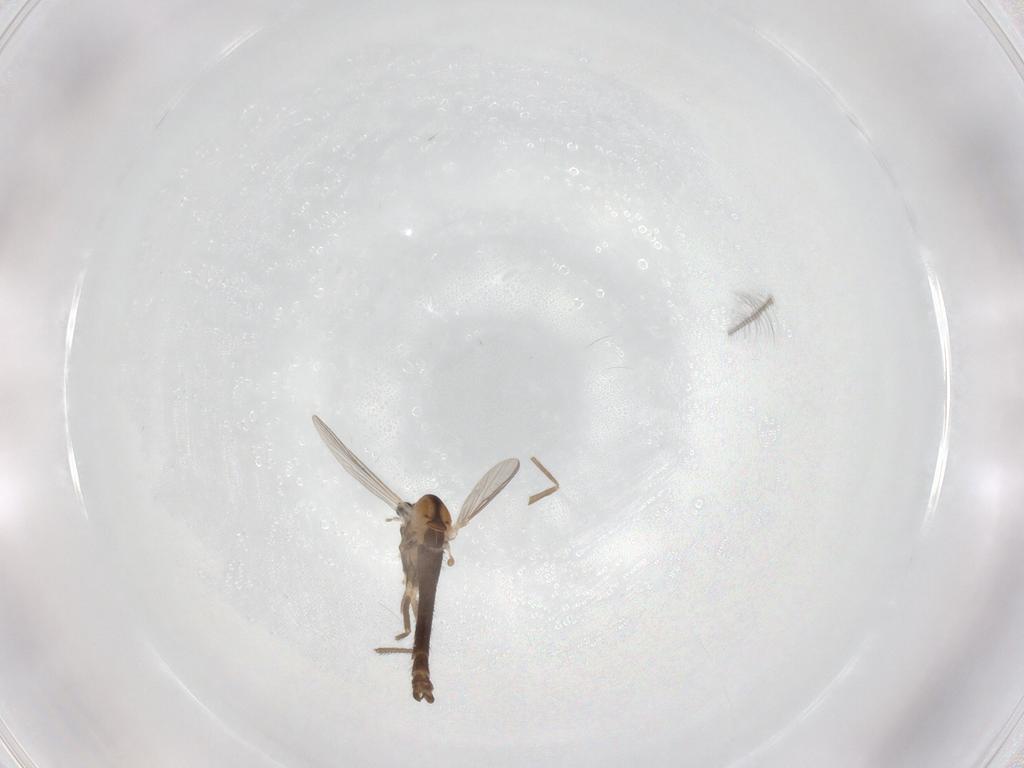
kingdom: Animalia
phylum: Arthropoda
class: Insecta
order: Diptera
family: Chironomidae
